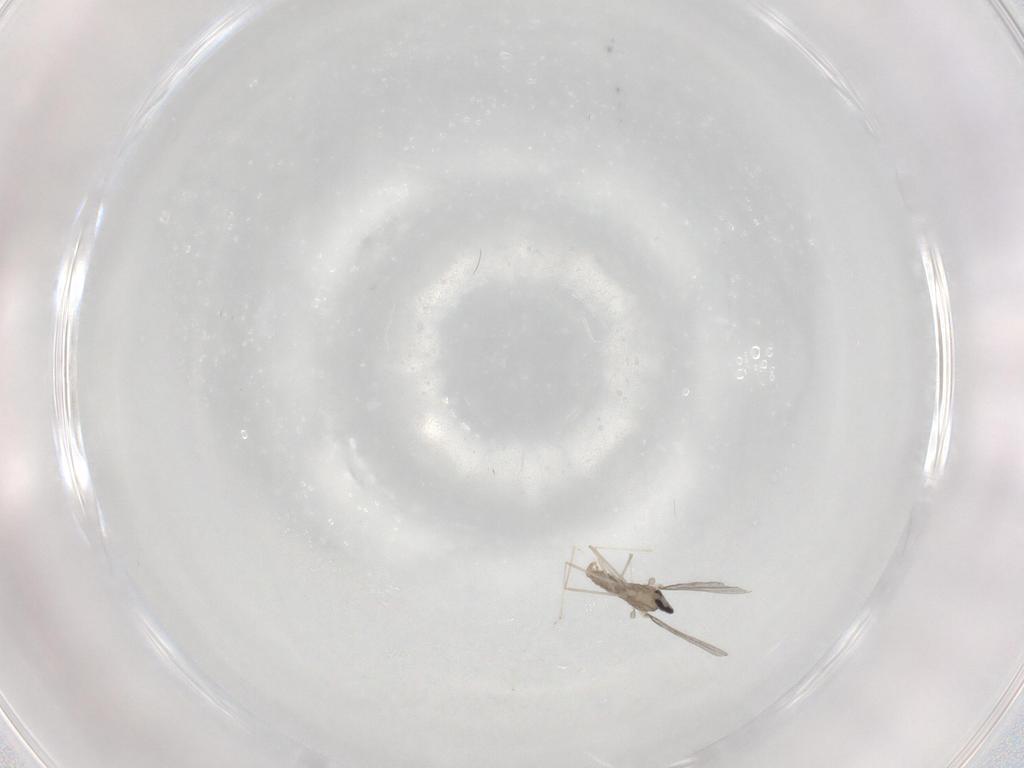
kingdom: Animalia
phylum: Arthropoda
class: Insecta
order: Diptera
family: Cecidomyiidae
